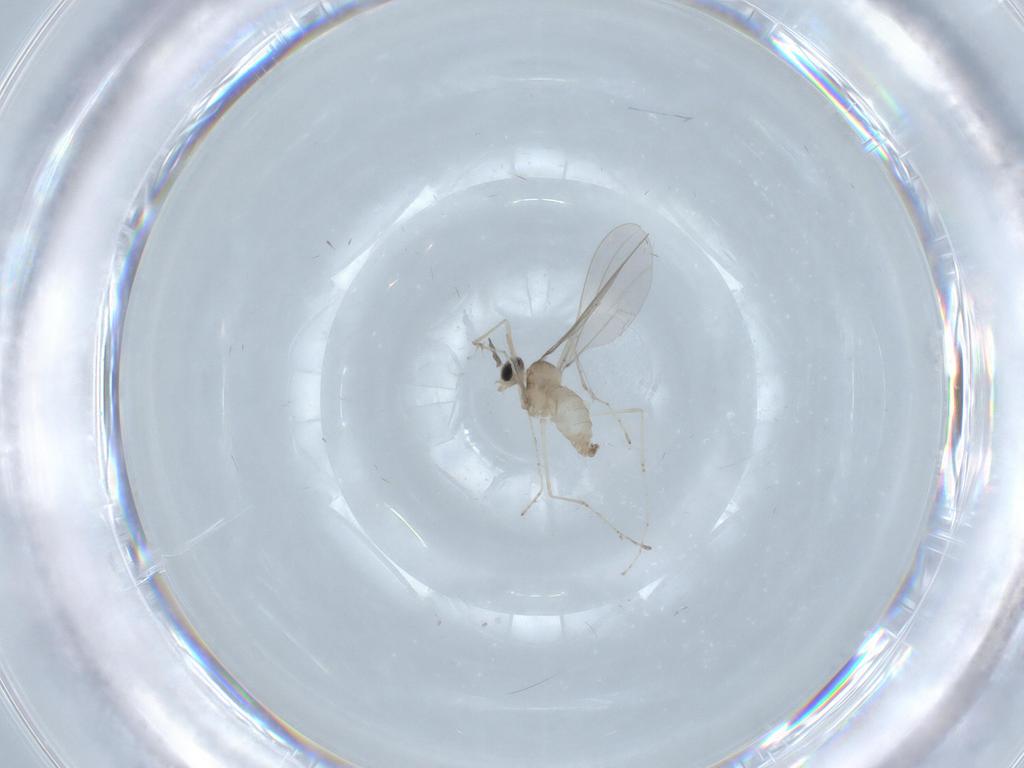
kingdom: Animalia
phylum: Arthropoda
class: Insecta
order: Diptera
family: Cecidomyiidae
